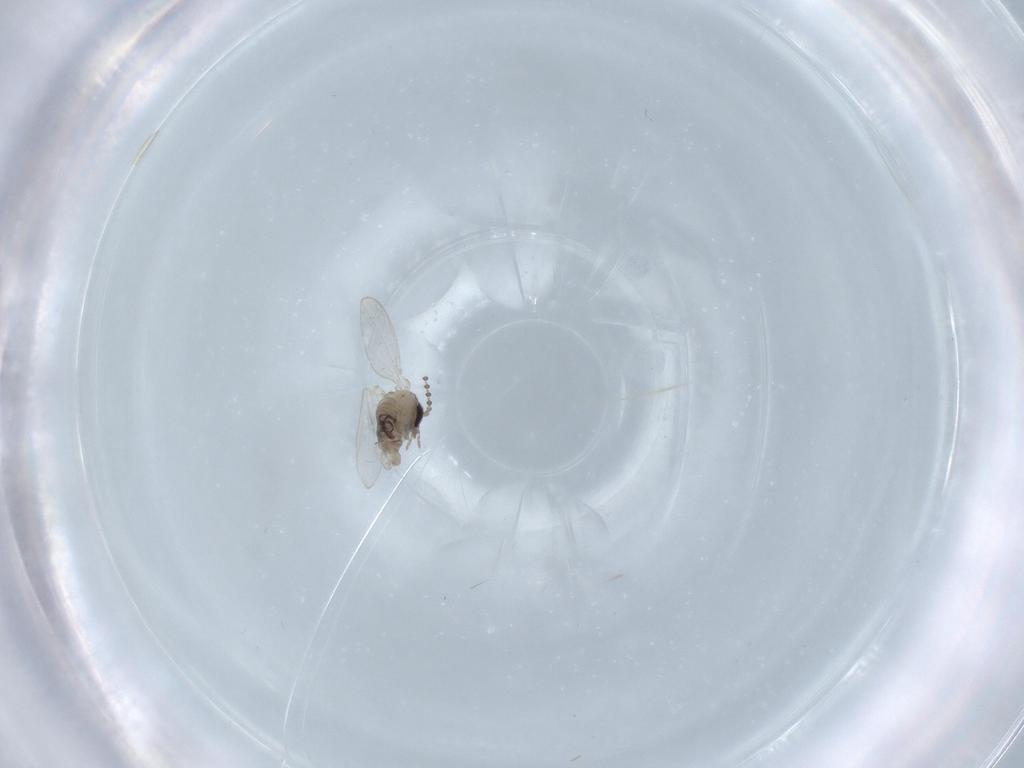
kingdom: Animalia
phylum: Arthropoda
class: Insecta
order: Diptera
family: Psychodidae
